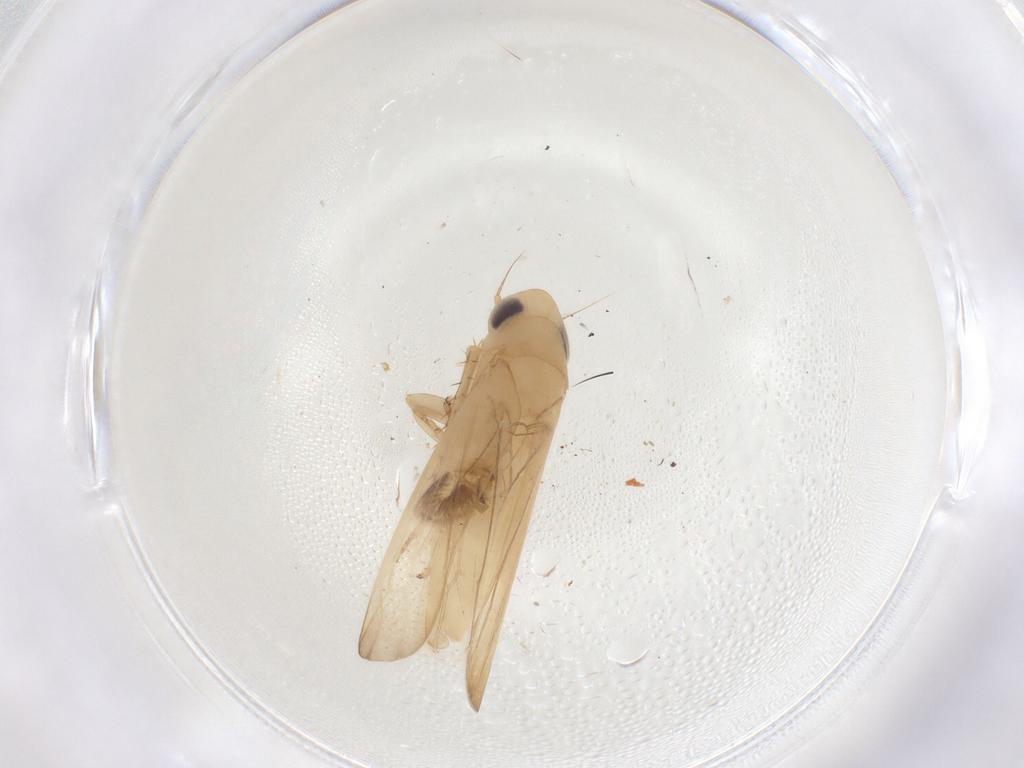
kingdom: Animalia
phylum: Arthropoda
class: Insecta
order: Hemiptera
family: Cicadellidae
